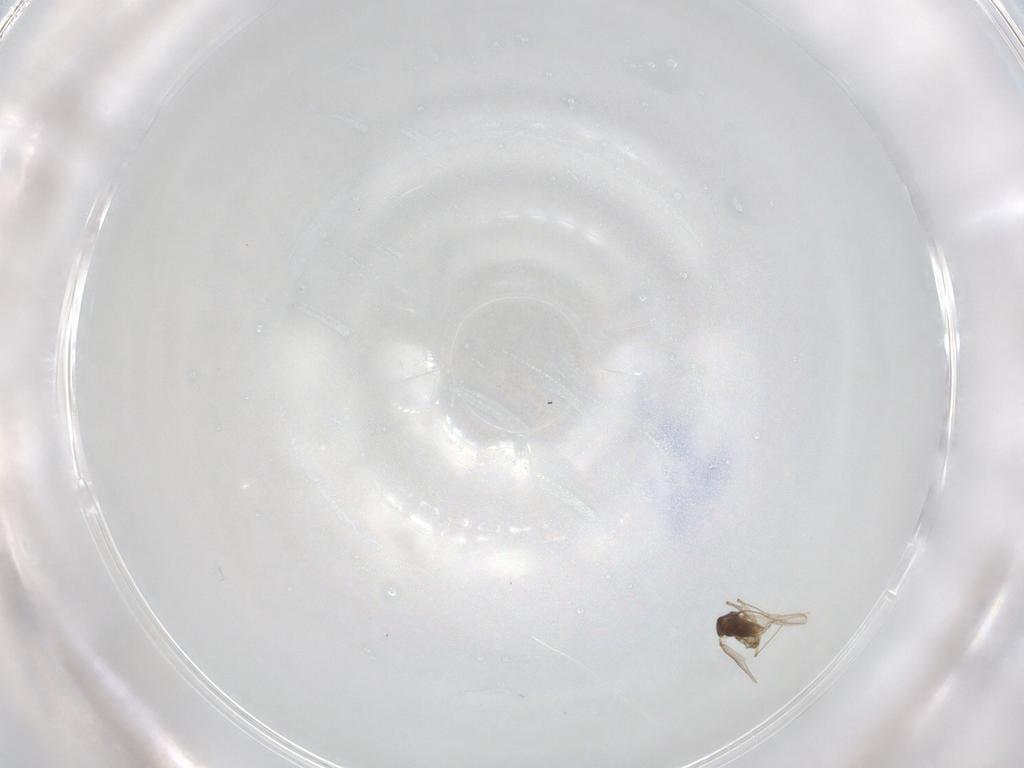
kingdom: Animalia
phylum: Arthropoda
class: Insecta
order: Diptera
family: Chironomidae
